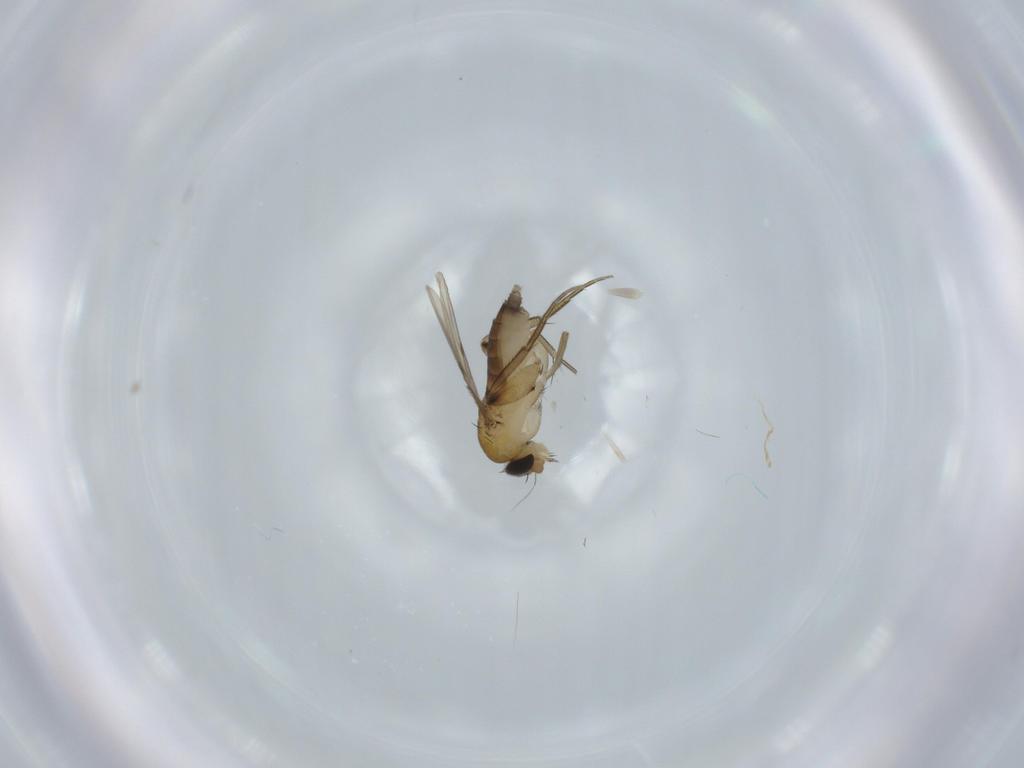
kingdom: Animalia
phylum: Arthropoda
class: Insecta
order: Diptera
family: Phoridae
